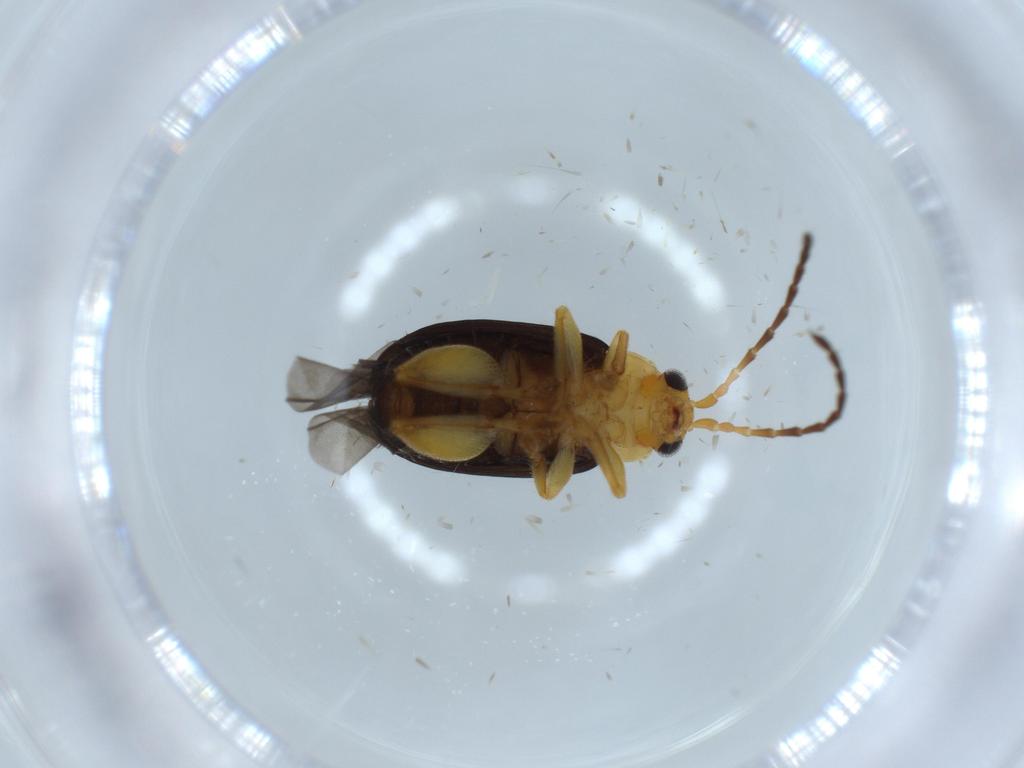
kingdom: Animalia
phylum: Arthropoda
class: Insecta
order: Coleoptera
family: Chrysomelidae
